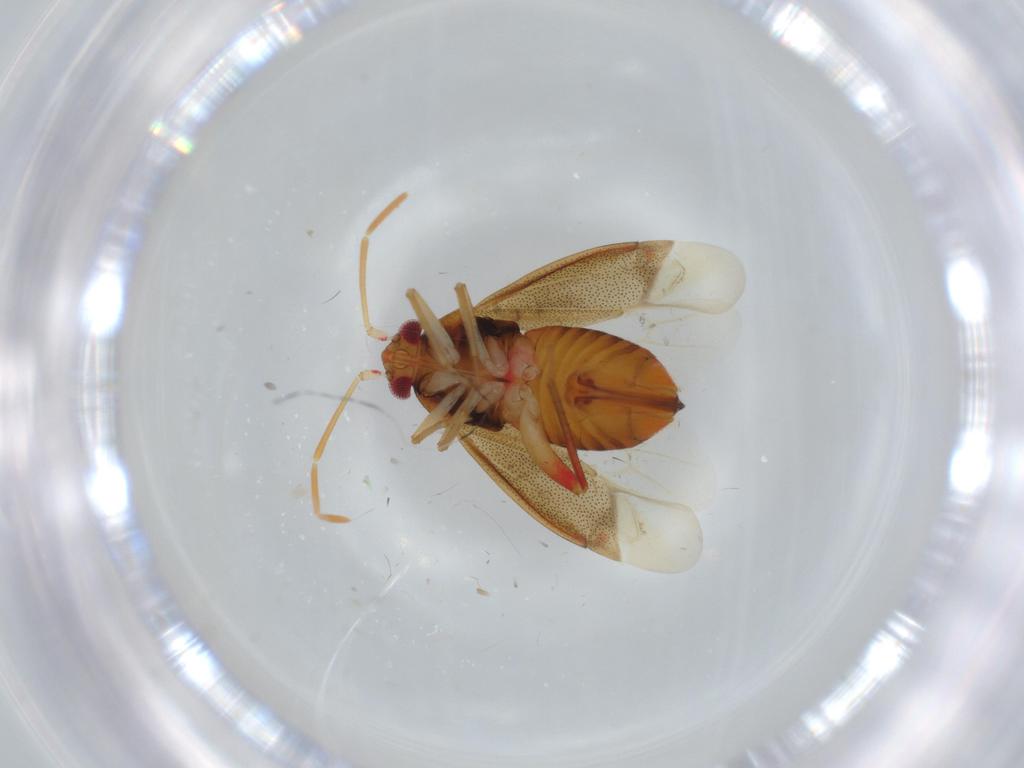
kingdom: Animalia
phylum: Arthropoda
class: Insecta
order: Hemiptera
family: Miridae
